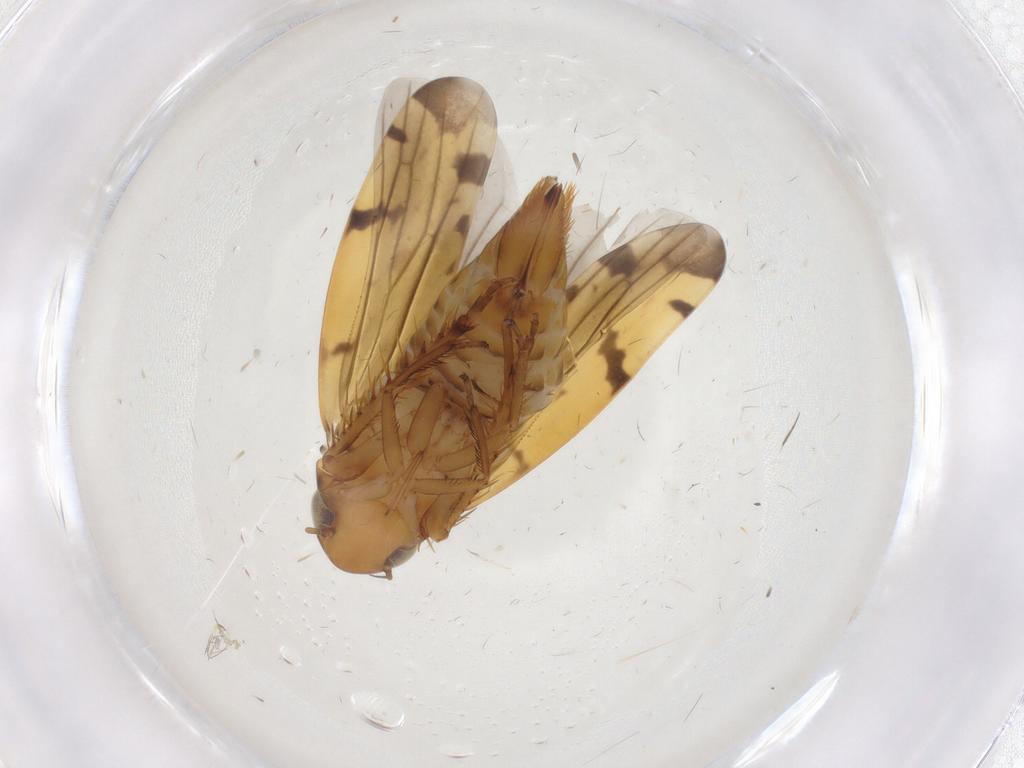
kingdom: Animalia
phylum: Arthropoda
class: Insecta
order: Hemiptera
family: Cicadellidae
